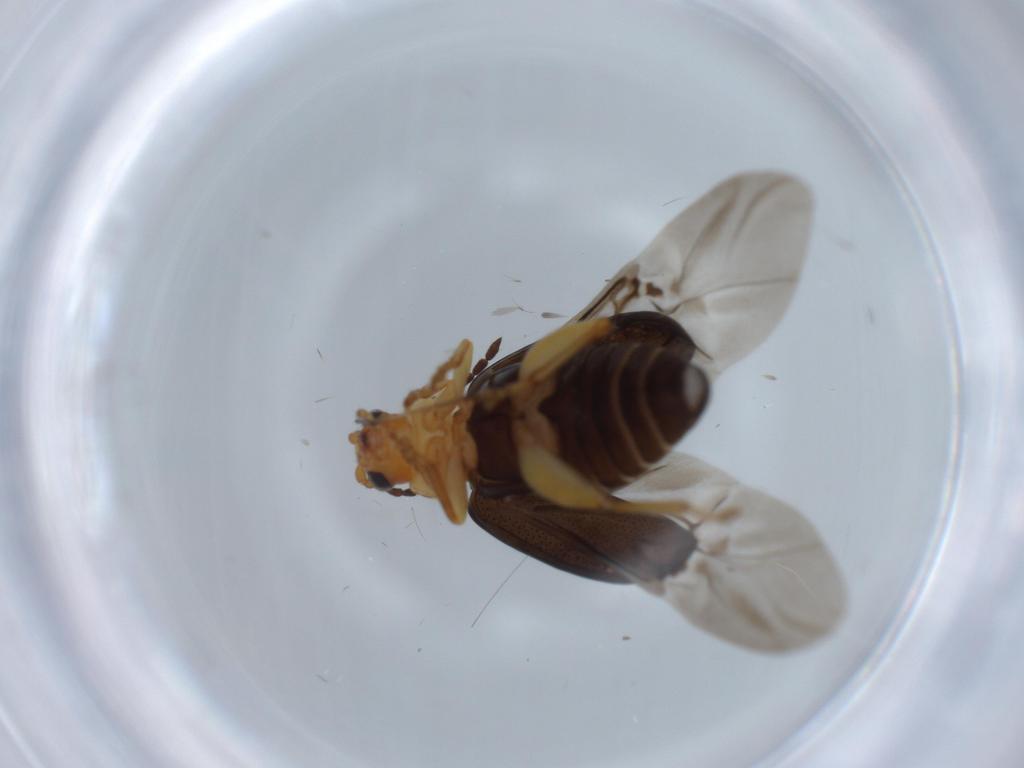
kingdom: Animalia
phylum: Arthropoda
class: Insecta
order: Coleoptera
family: Chrysomelidae
